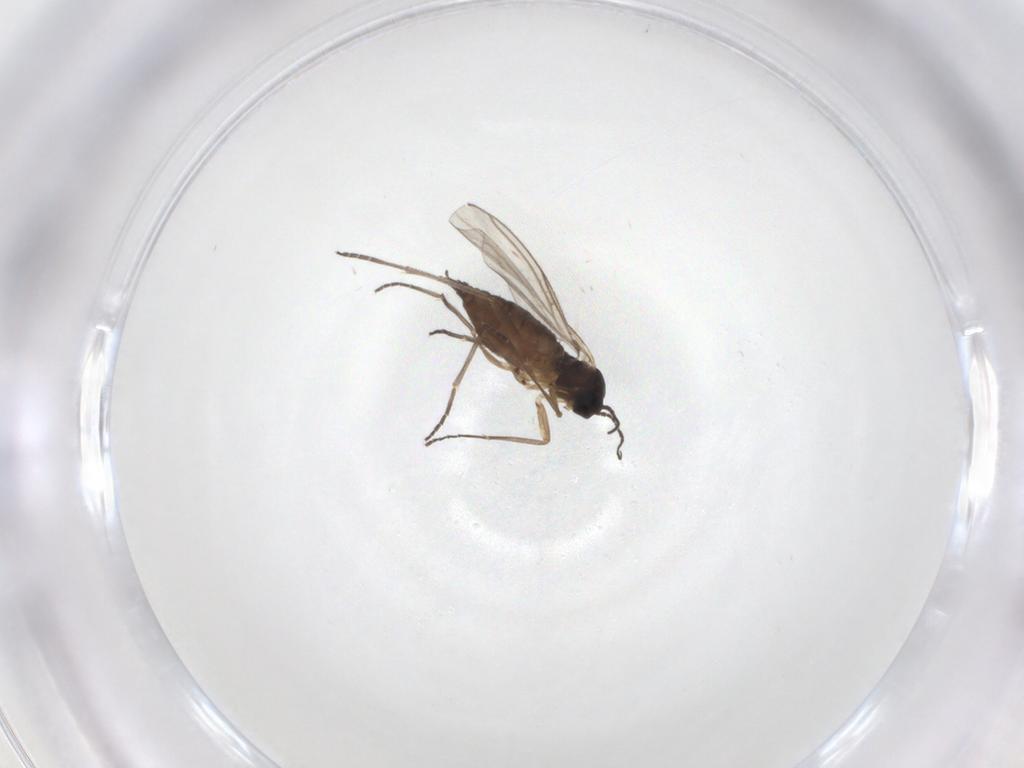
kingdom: Animalia
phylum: Arthropoda
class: Insecta
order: Diptera
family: Sciaridae
